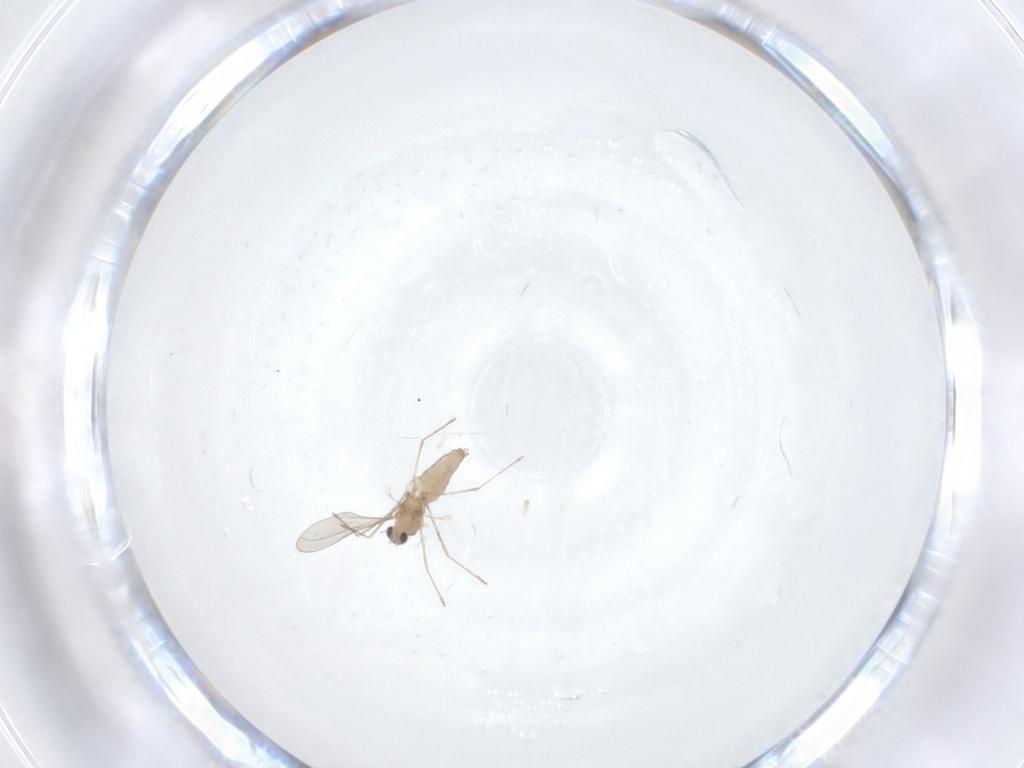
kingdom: Animalia
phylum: Arthropoda
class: Insecta
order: Diptera
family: Cecidomyiidae
